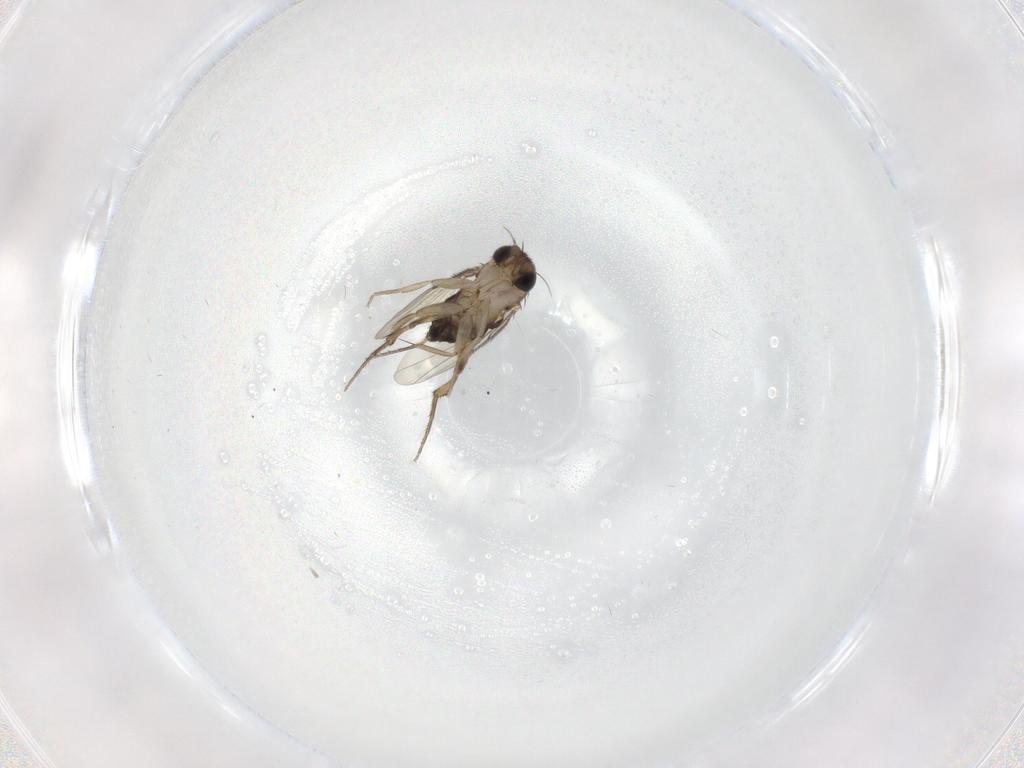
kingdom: Animalia
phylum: Arthropoda
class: Insecta
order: Diptera
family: Phoridae
